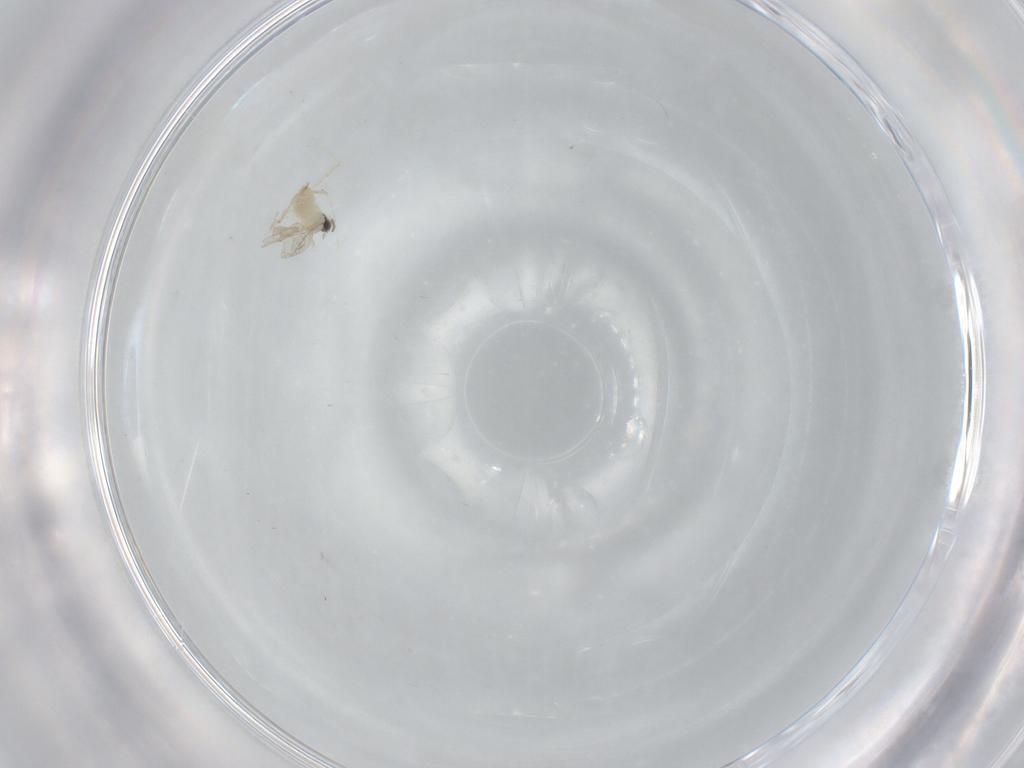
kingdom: Animalia
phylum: Arthropoda
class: Insecta
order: Diptera
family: Cecidomyiidae
